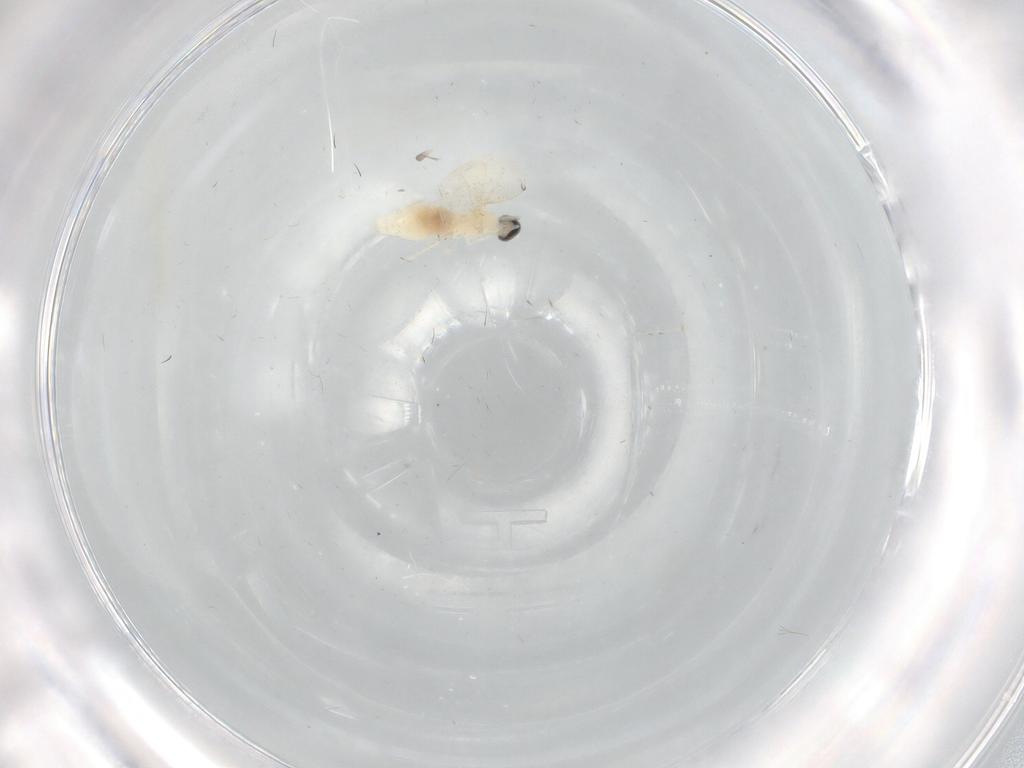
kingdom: Animalia
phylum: Arthropoda
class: Insecta
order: Diptera
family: Cecidomyiidae
